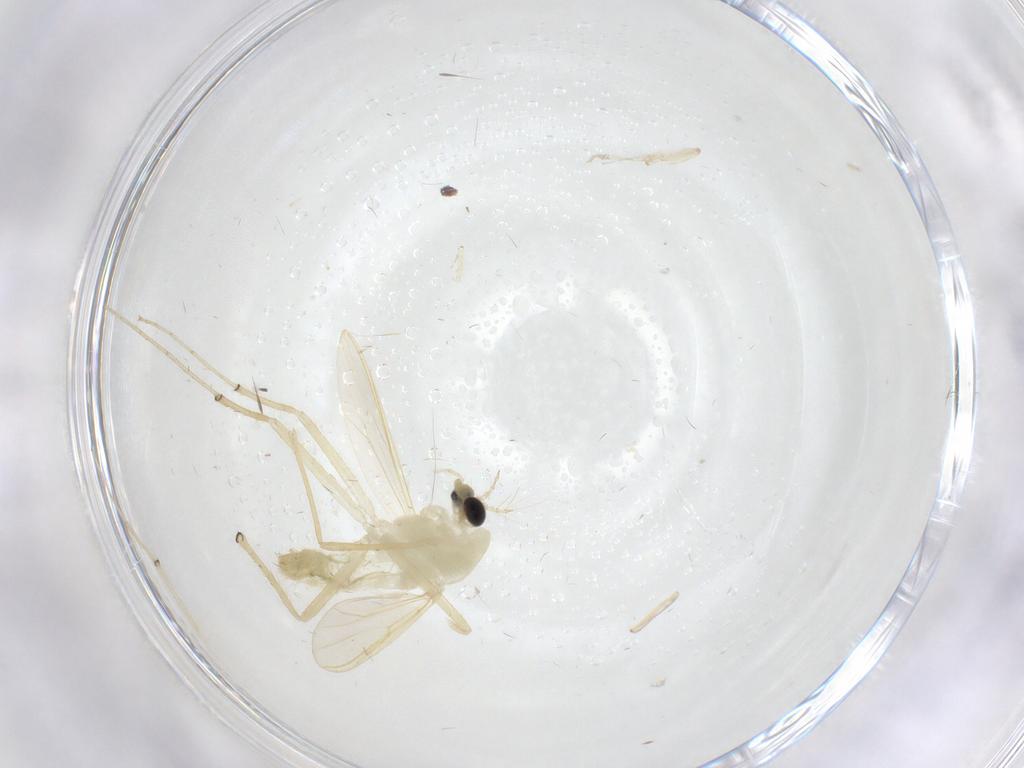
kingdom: Animalia
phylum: Arthropoda
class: Insecta
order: Diptera
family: Chironomidae
